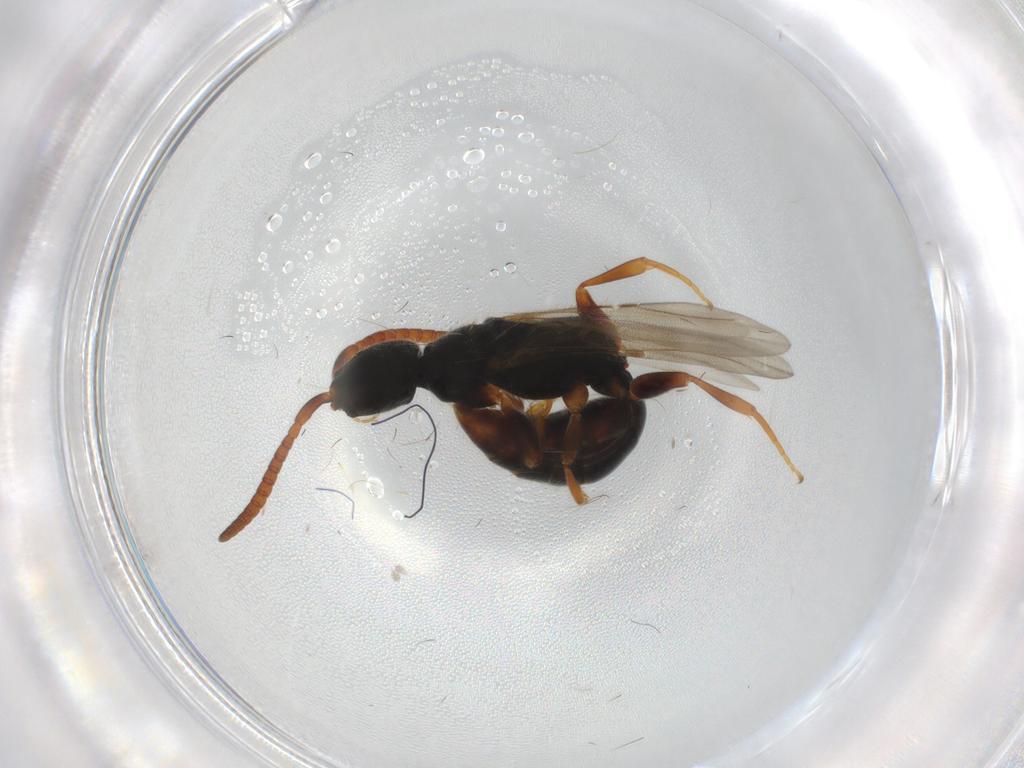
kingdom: Animalia
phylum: Arthropoda
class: Insecta
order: Hymenoptera
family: Bethylidae
